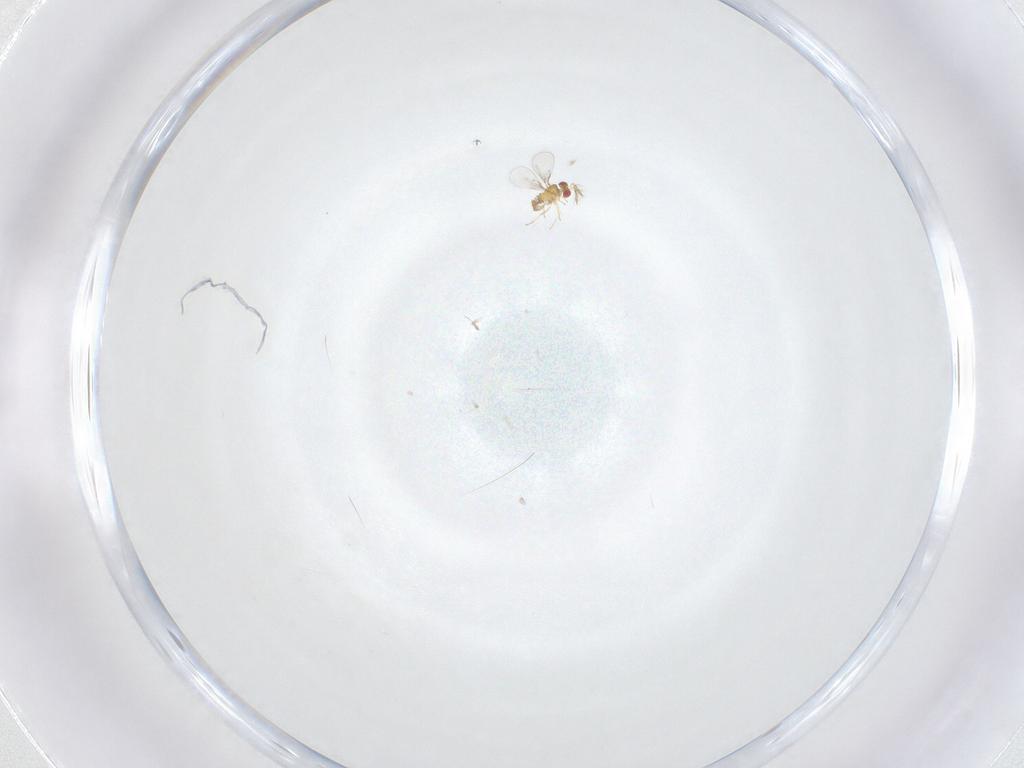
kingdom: Animalia
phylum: Arthropoda
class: Insecta
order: Hymenoptera
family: Trichogrammatidae
